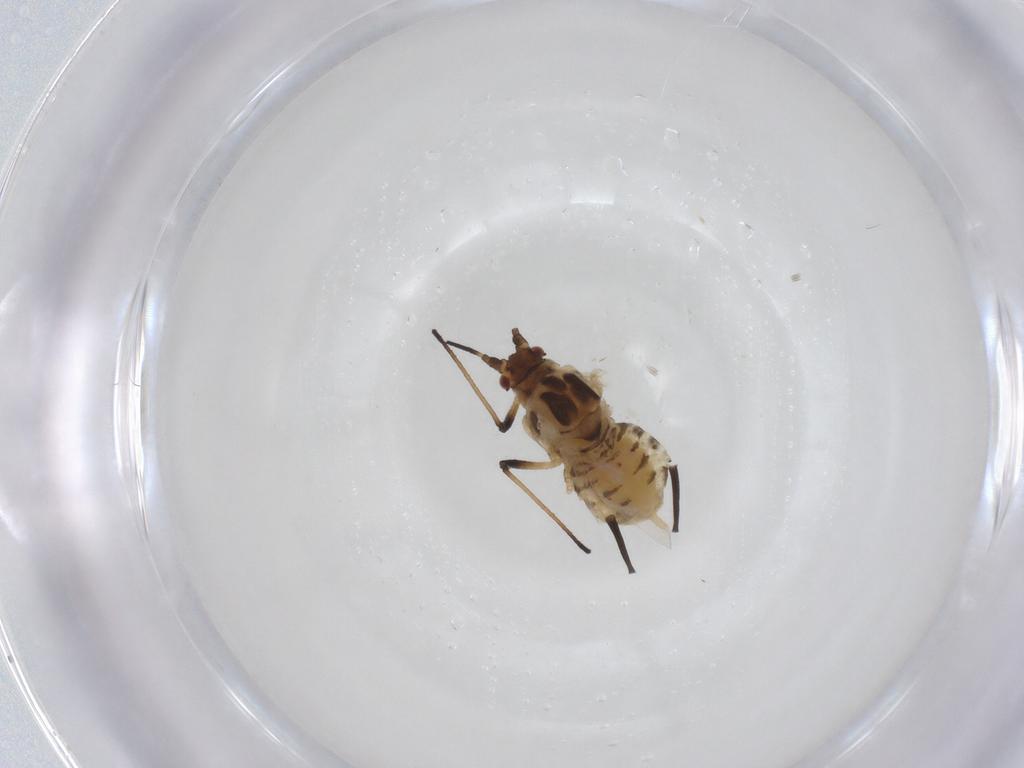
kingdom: Animalia
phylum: Arthropoda
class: Insecta
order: Hemiptera
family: Aphididae
